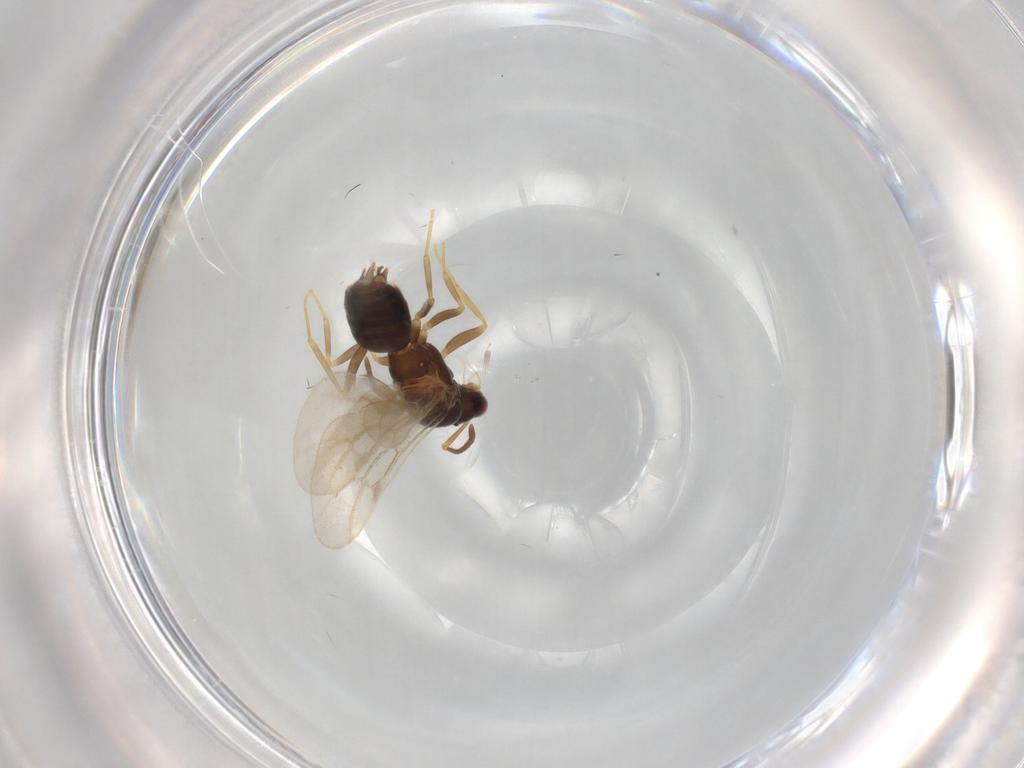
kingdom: Animalia
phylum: Arthropoda
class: Insecta
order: Hymenoptera
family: Formicidae
